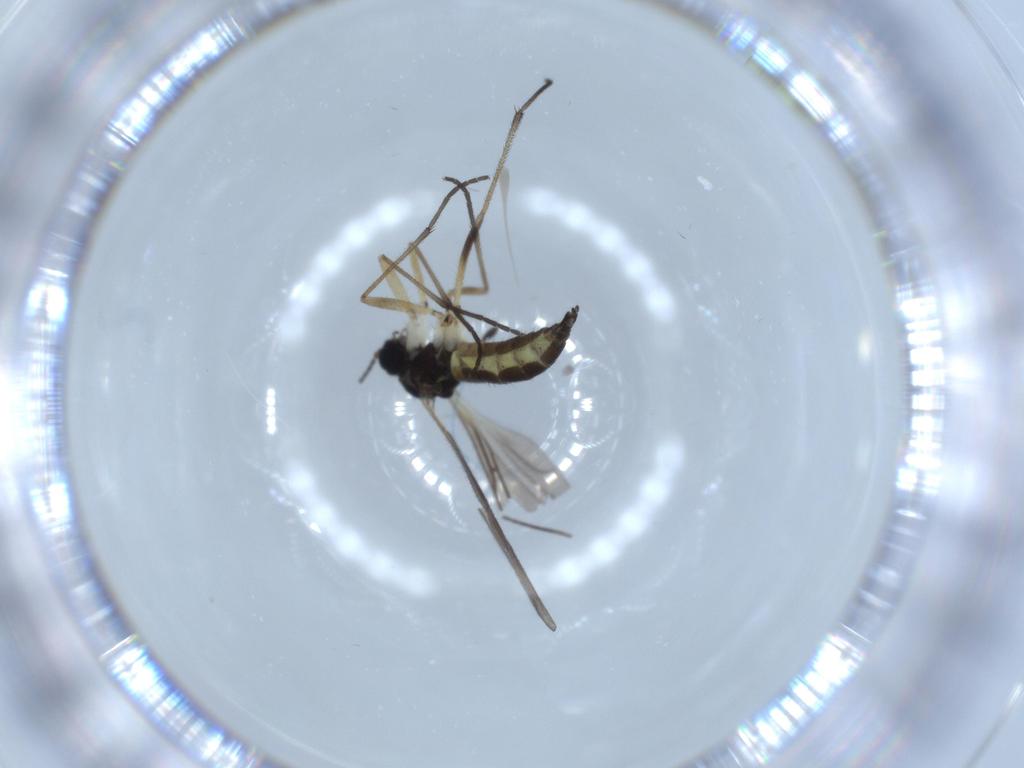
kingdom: Animalia
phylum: Arthropoda
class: Insecta
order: Diptera
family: Sciaridae
